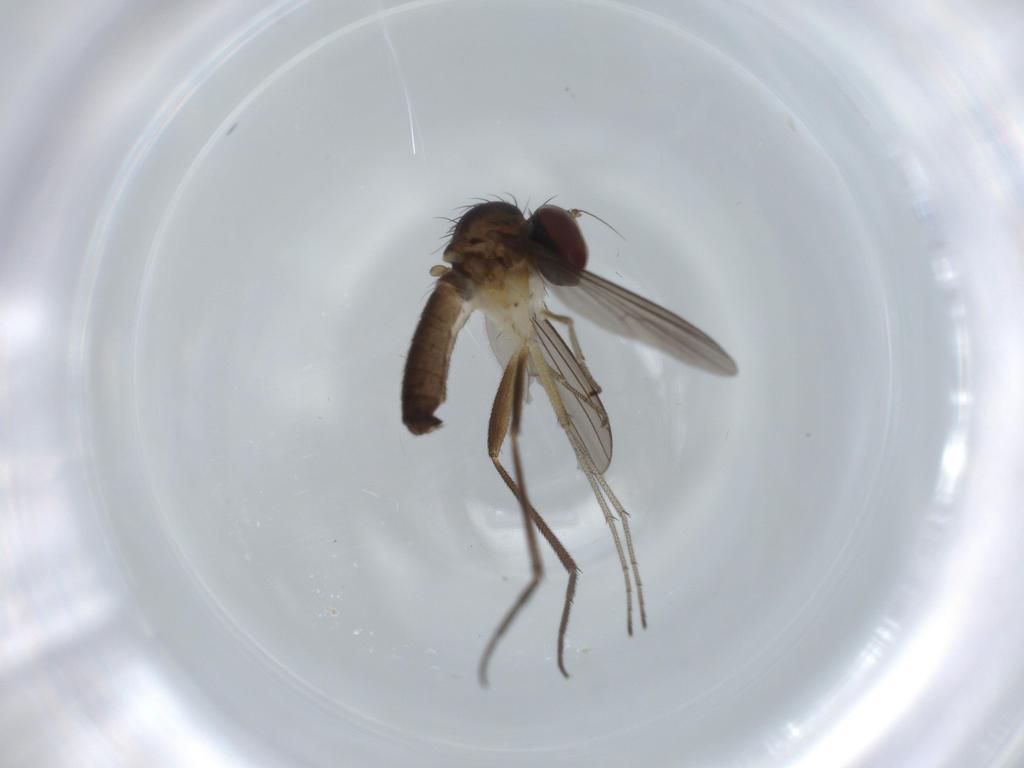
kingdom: Animalia
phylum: Arthropoda
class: Insecta
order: Diptera
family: Dolichopodidae
